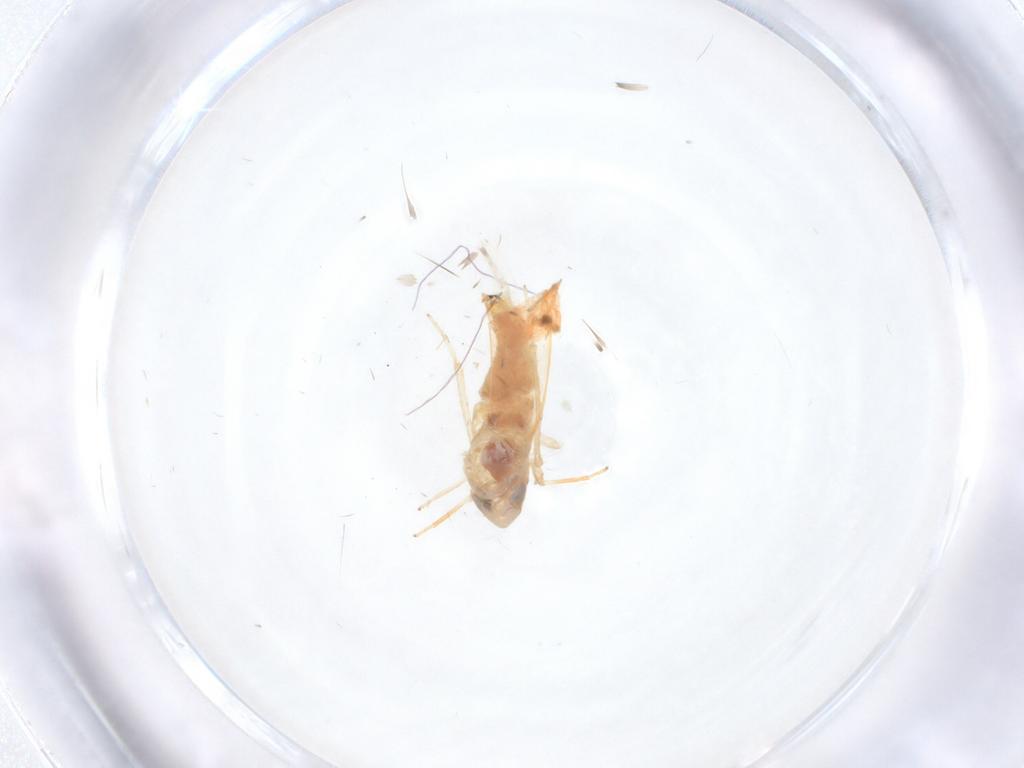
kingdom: Animalia
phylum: Arthropoda
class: Insecta
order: Hemiptera
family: Cicadellidae
